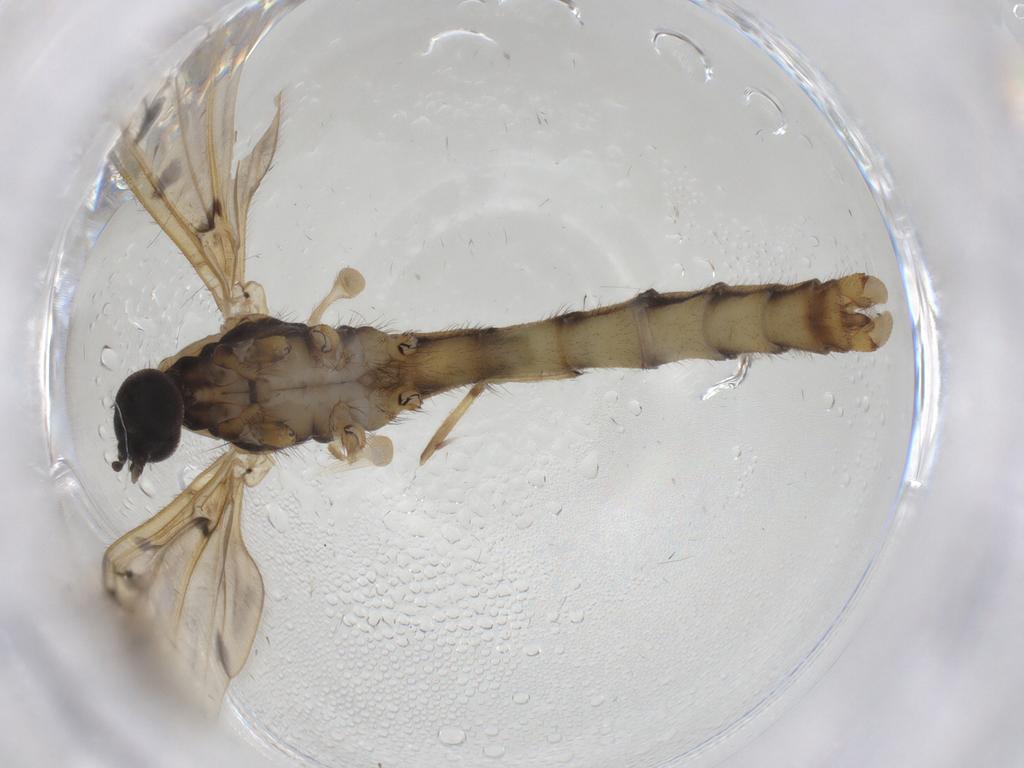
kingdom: Animalia
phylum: Arthropoda
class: Insecta
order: Diptera
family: Phoridae
